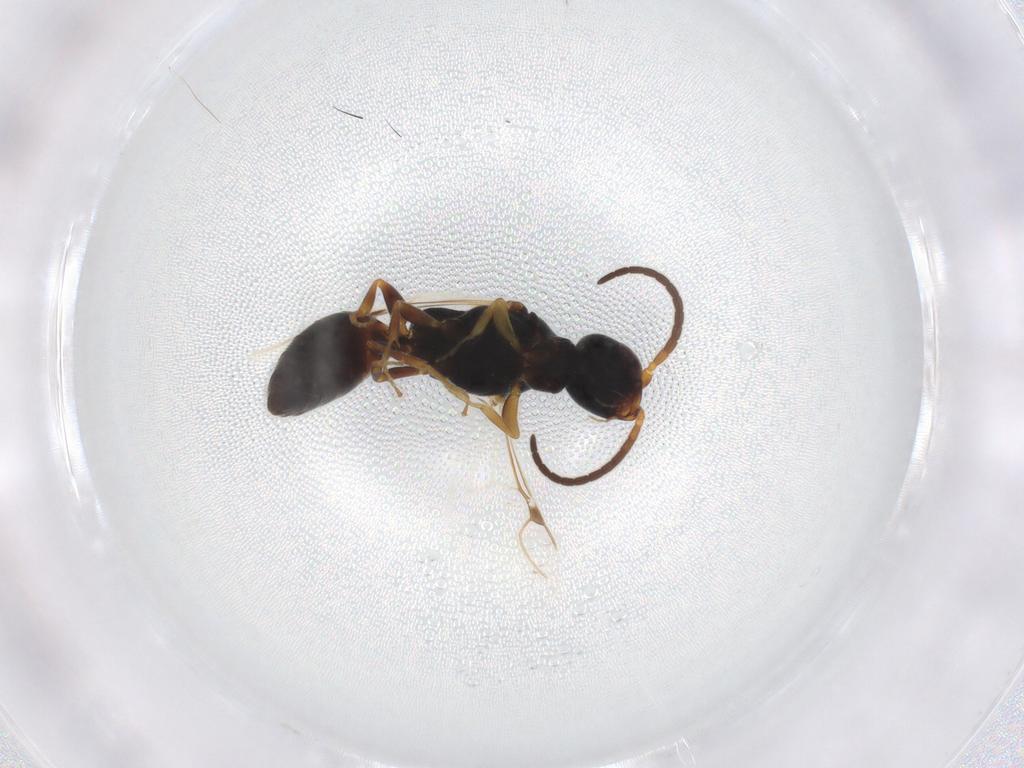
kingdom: Animalia
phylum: Arthropoda
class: Insecta
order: Hymenoptera
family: Bethylidae
